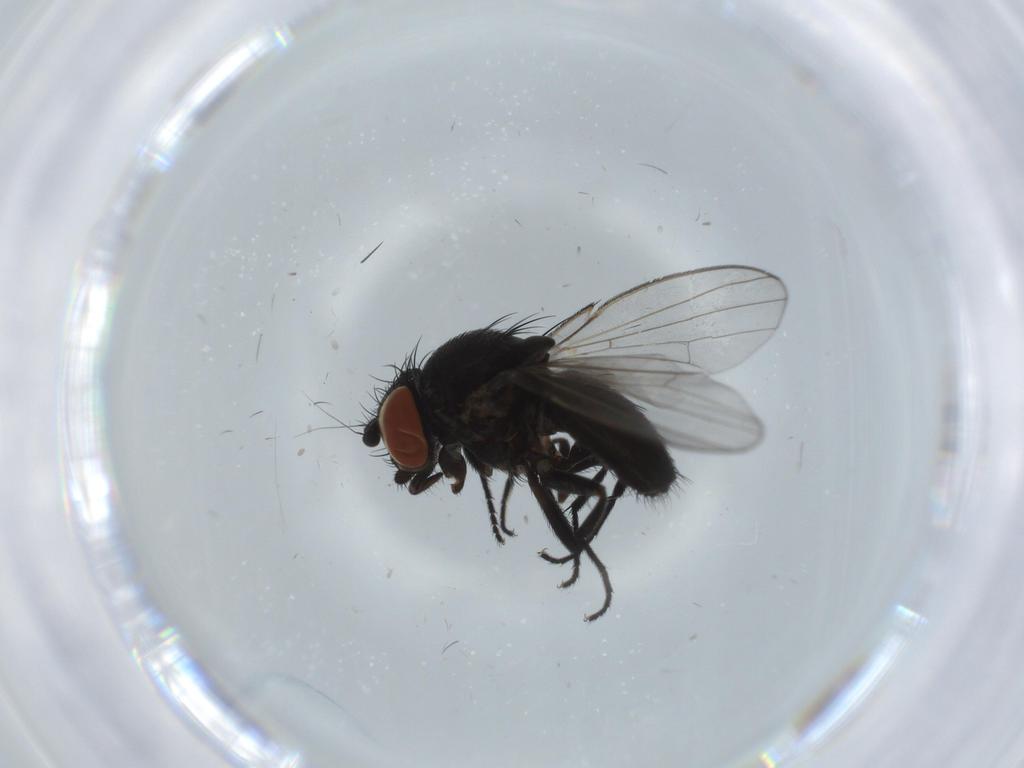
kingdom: Animalia
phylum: Arthropoda
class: Insecta
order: Diptera
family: Milichiidae
